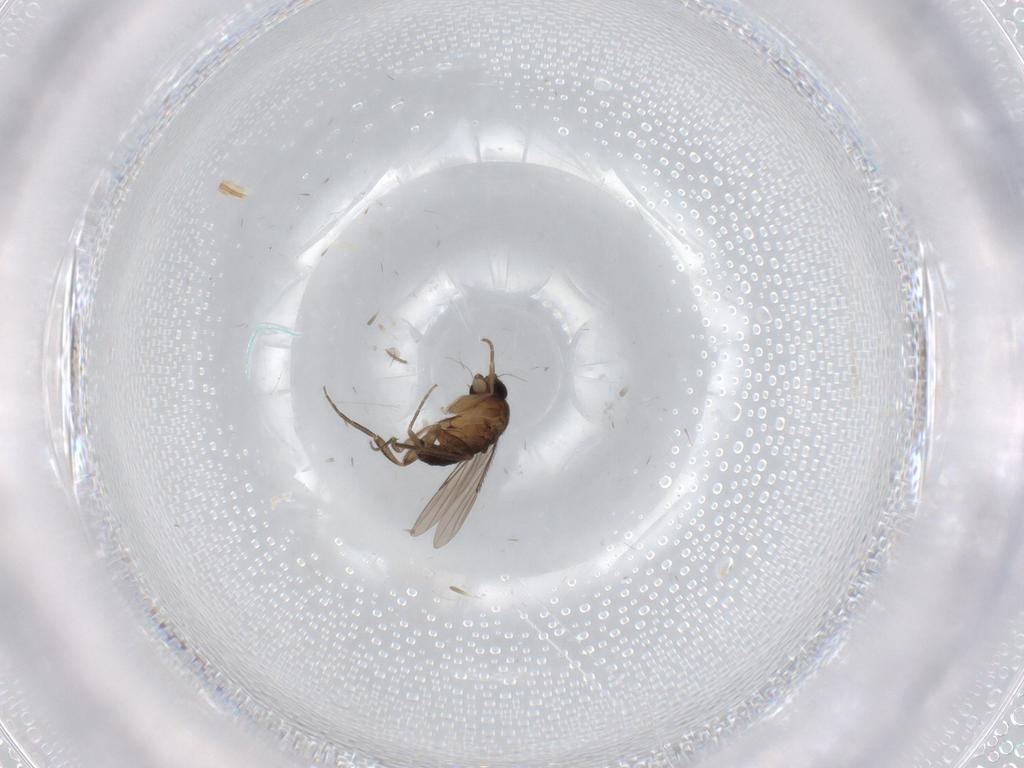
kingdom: Animalia
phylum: Arthropoda
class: Insecta
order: Diptera
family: Phoridae
